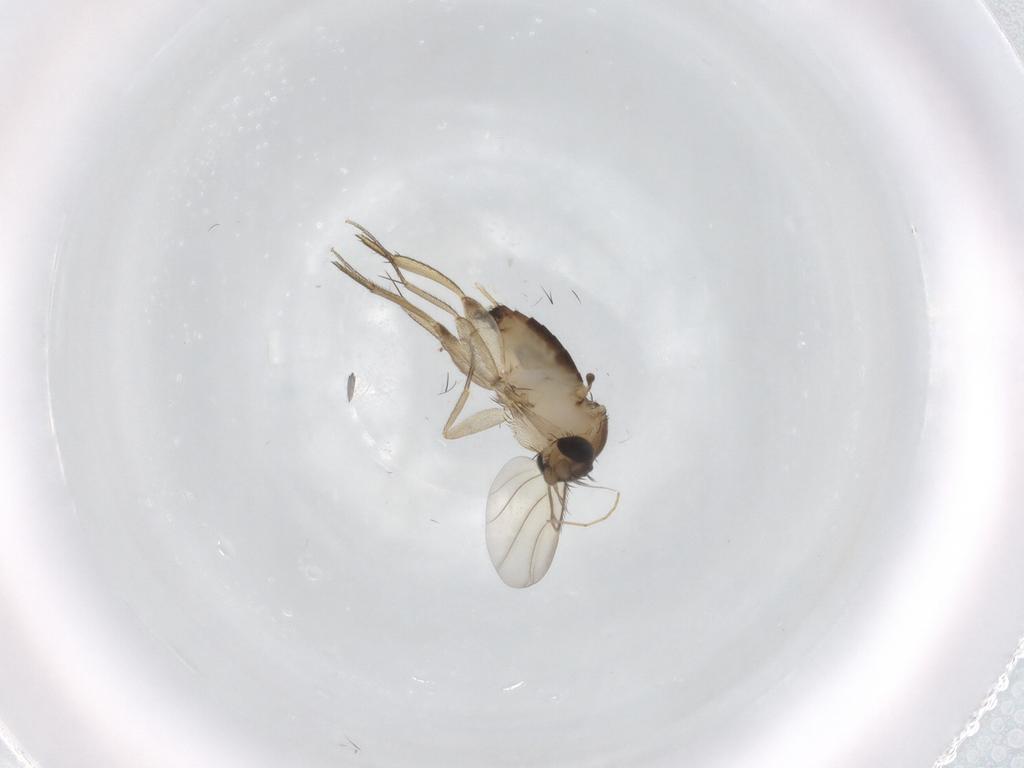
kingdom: Animalia
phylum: Arthropoda
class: Insecta
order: Diptera
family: Phoridae
